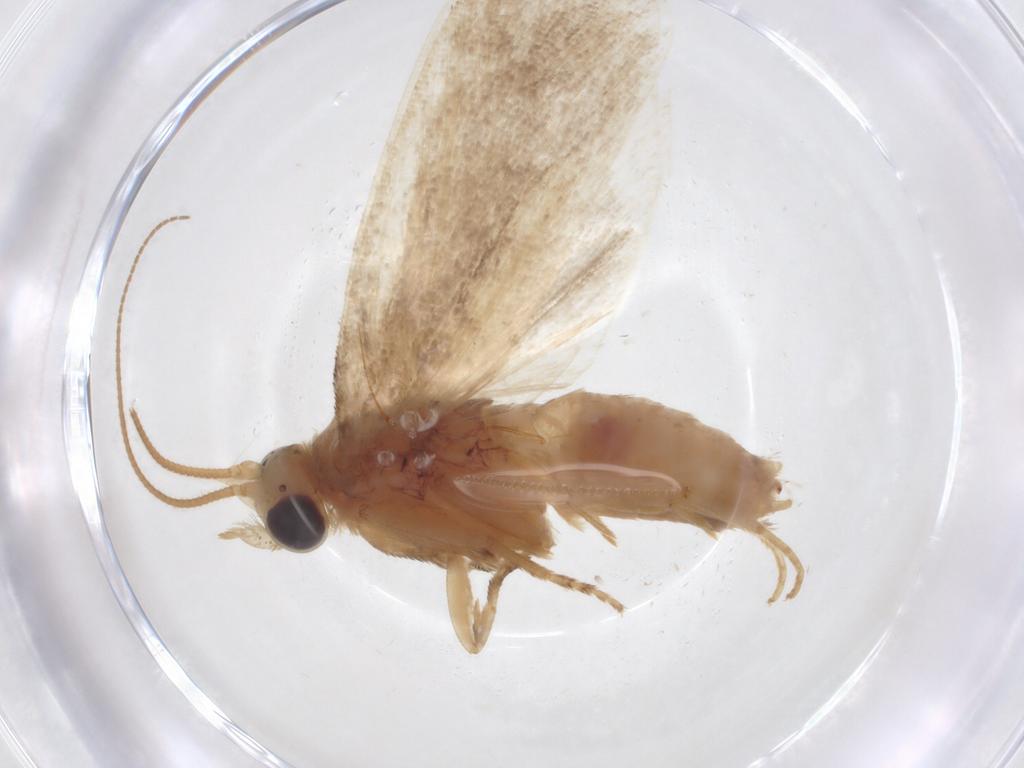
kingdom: Animalia
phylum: Arthropoda
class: Insecta
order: Lepidoptera
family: Tortricidae
